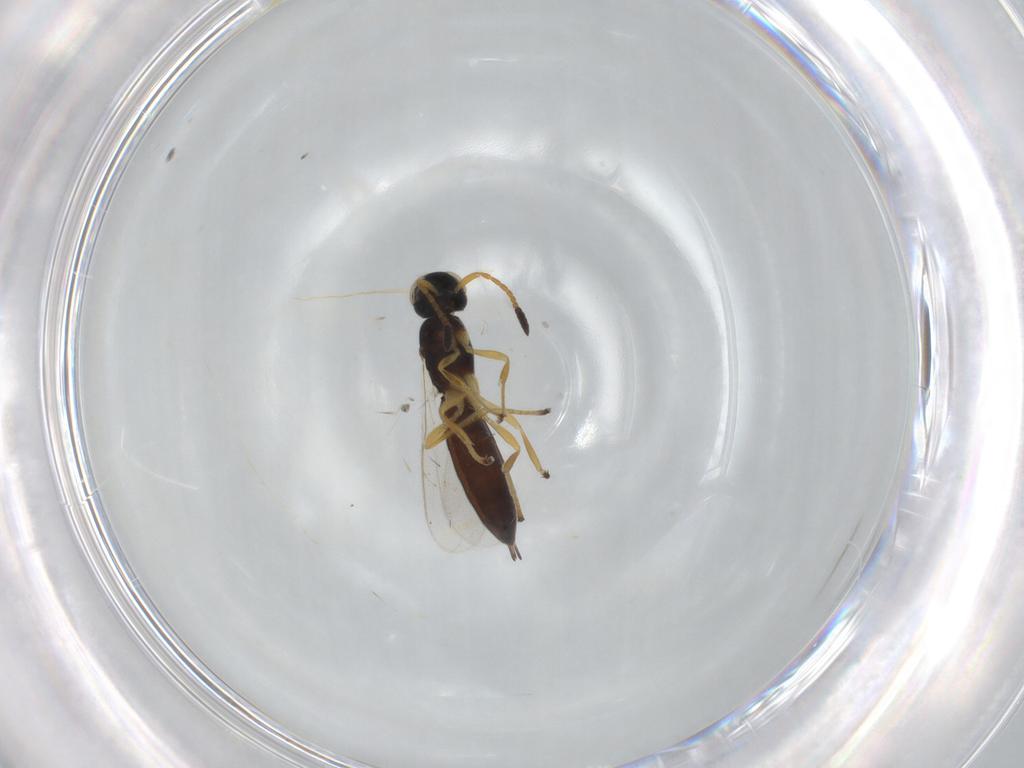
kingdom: Animalia
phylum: Arthropoda
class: Insecta
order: Hymenoptera
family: Scelionidae
